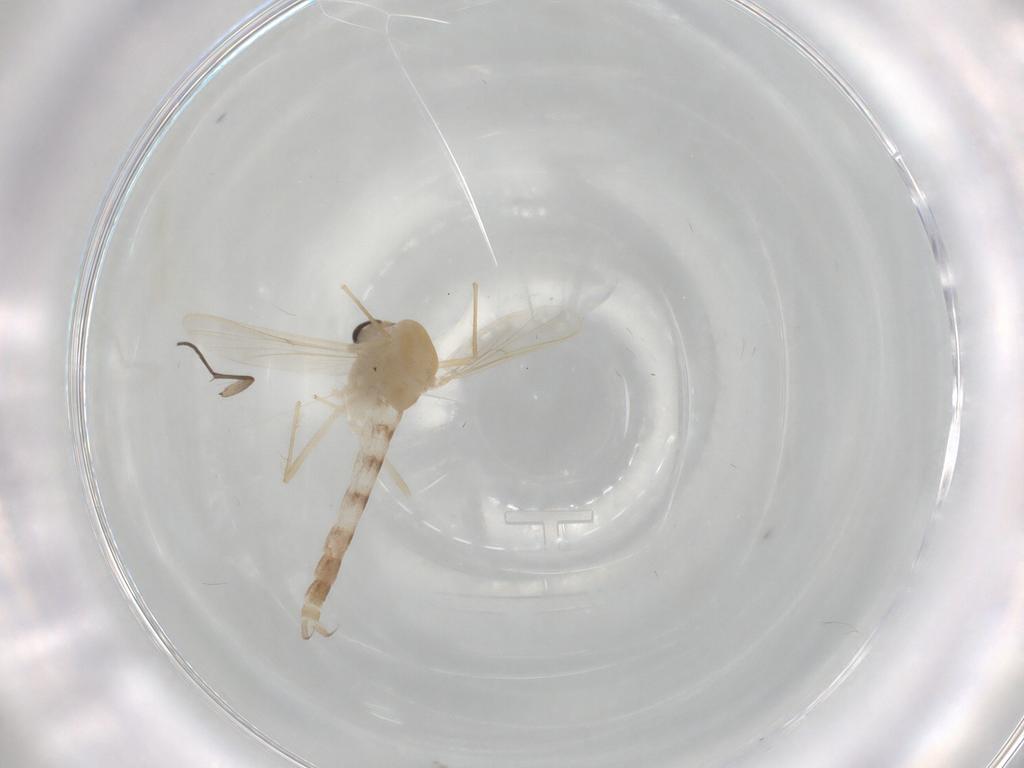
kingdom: Animalia
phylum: Arthropoda
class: Insecta
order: Diptera
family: Chironomidae
